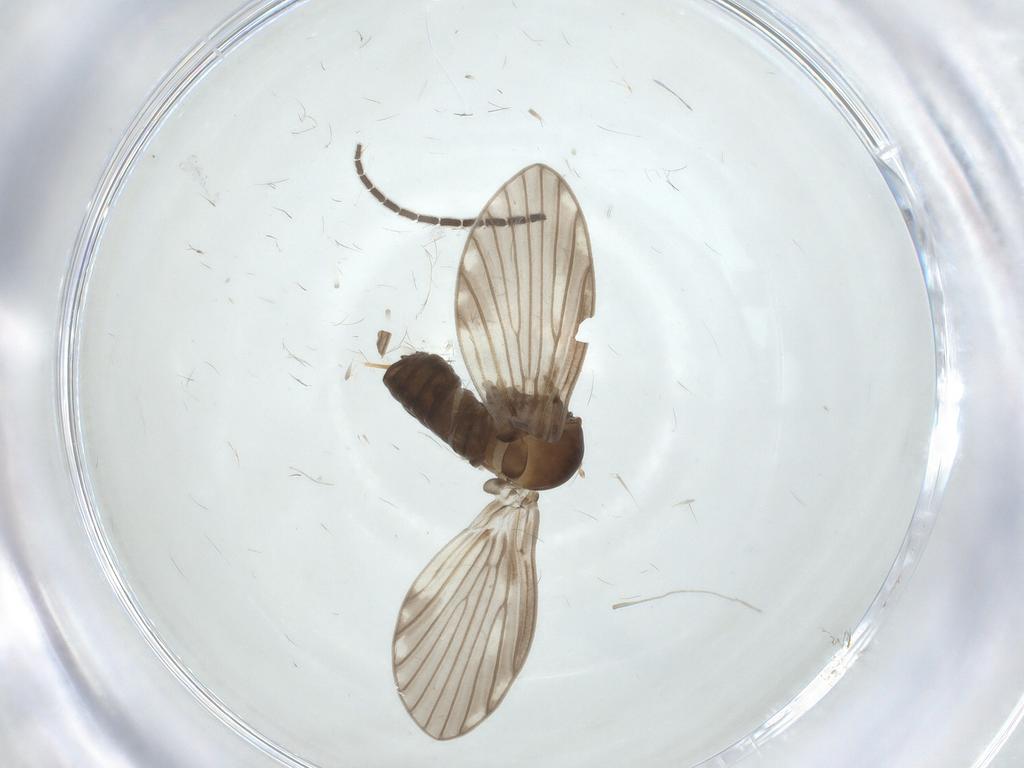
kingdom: Animalia
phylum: Arthropoda
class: Insecta
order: Diptera
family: Psychodidae
